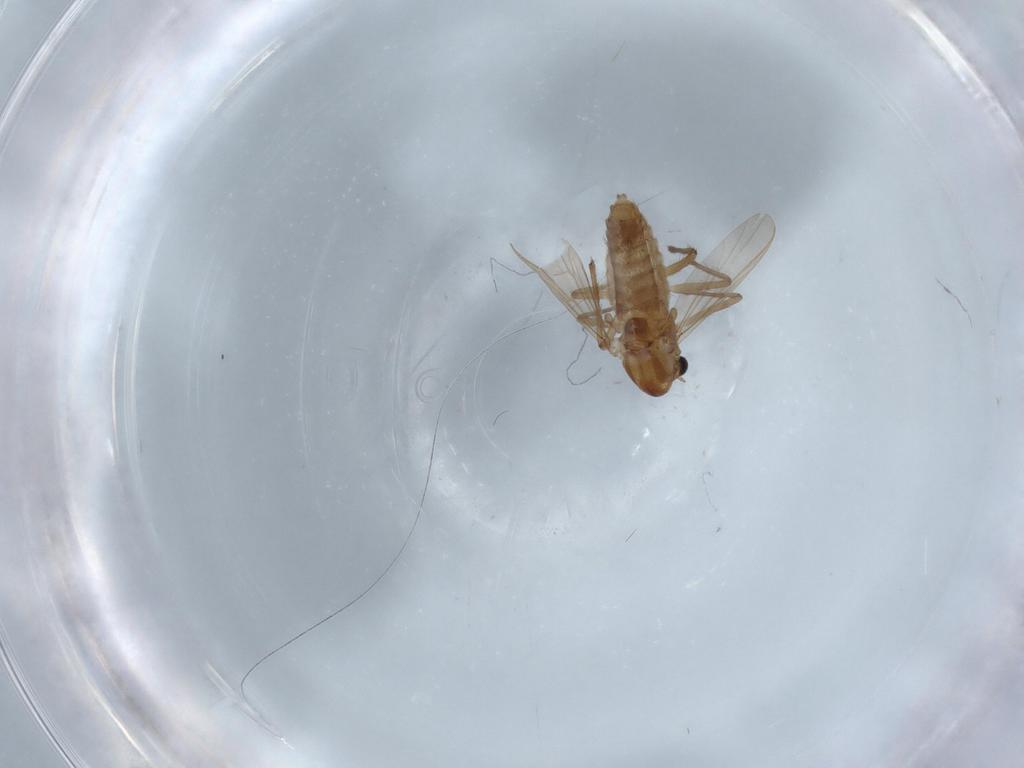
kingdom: Animalia
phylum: Arthropoda
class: Insecta
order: Diptera
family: Chironomidae
